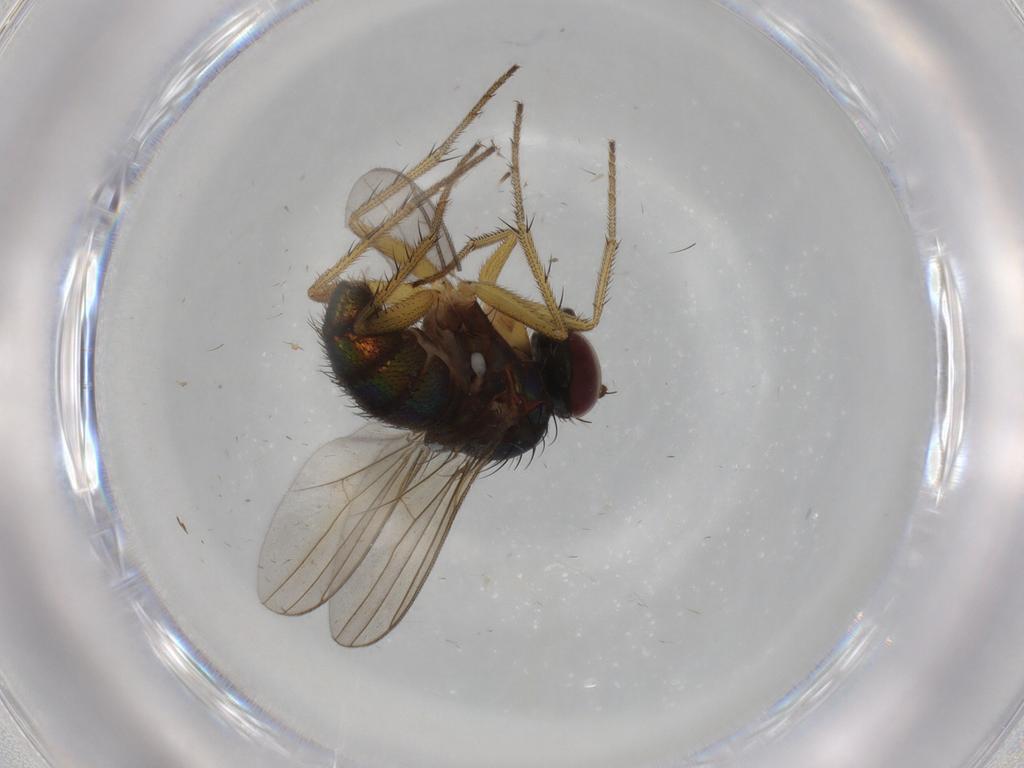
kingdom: Animalia
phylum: Arthropoda
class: Insecta
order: Diptera
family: Dolichopodidae
